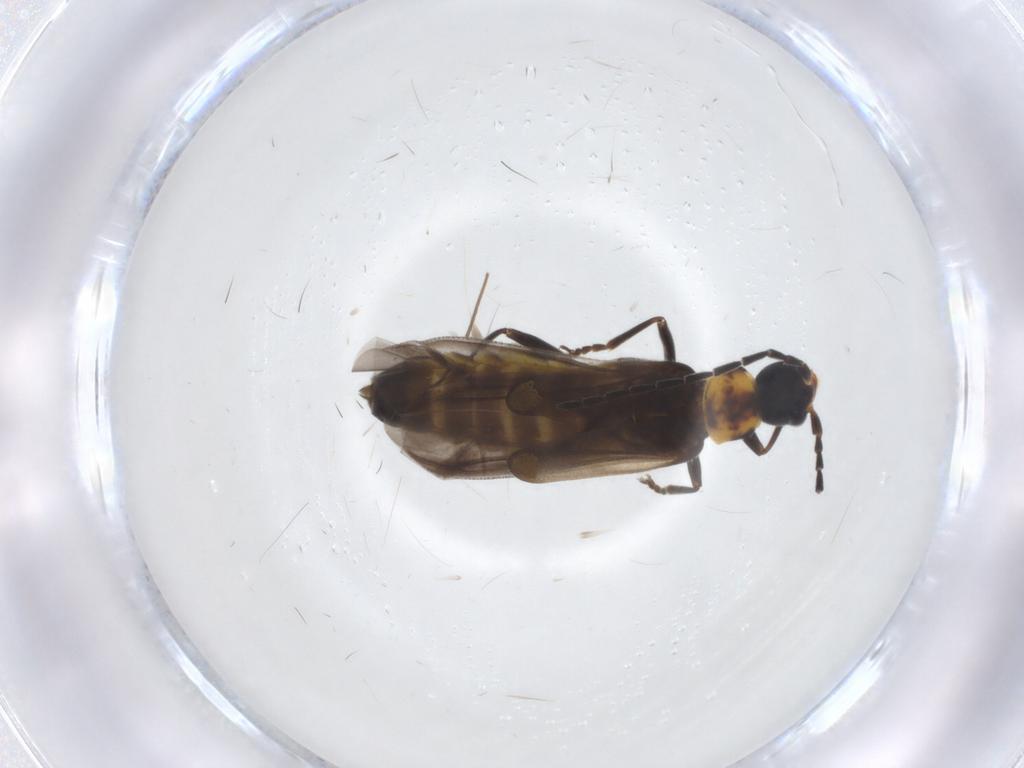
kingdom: Animalia
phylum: Arthropoda
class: Insecta
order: Coleoptera
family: Cantharidae
